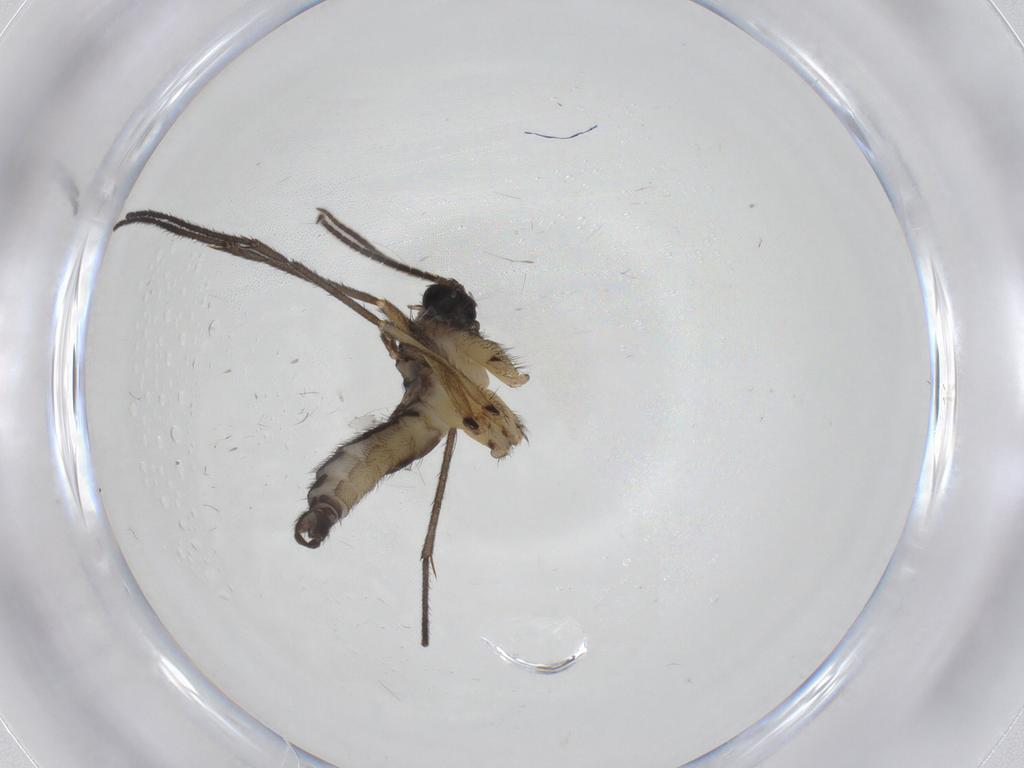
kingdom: Animalia
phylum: Arthropoda
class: Insecta
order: Diptera
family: Sciaridae
